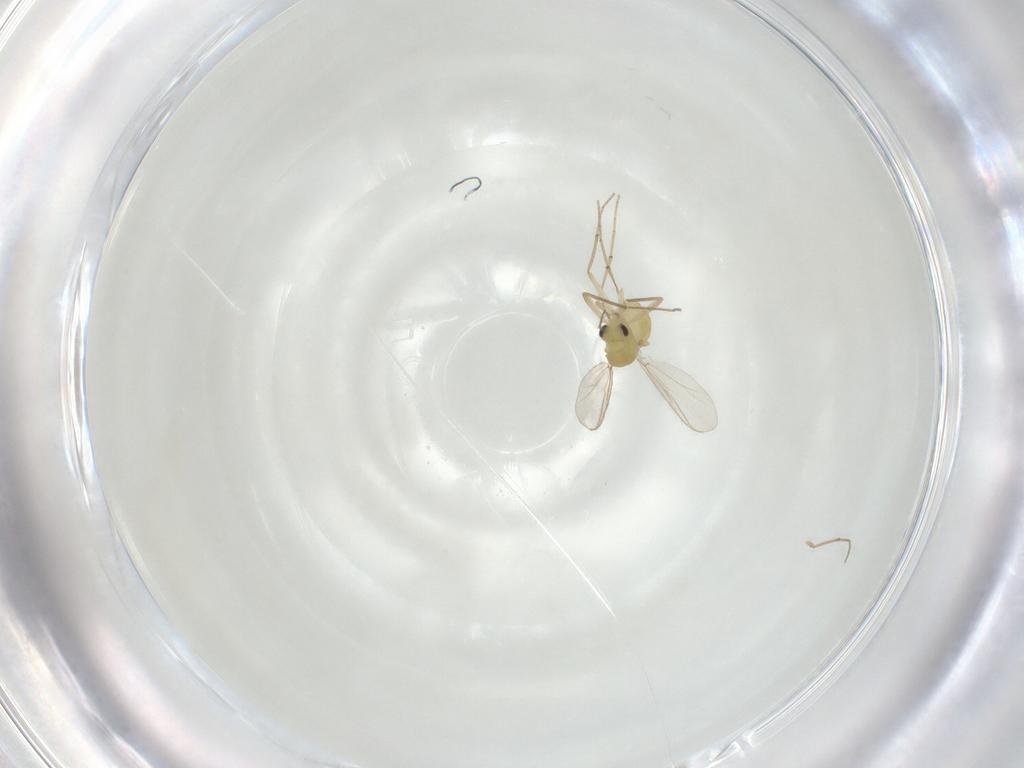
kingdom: Animalia
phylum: Arthropoda
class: Insecta
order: Diptera
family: Chironomidae
